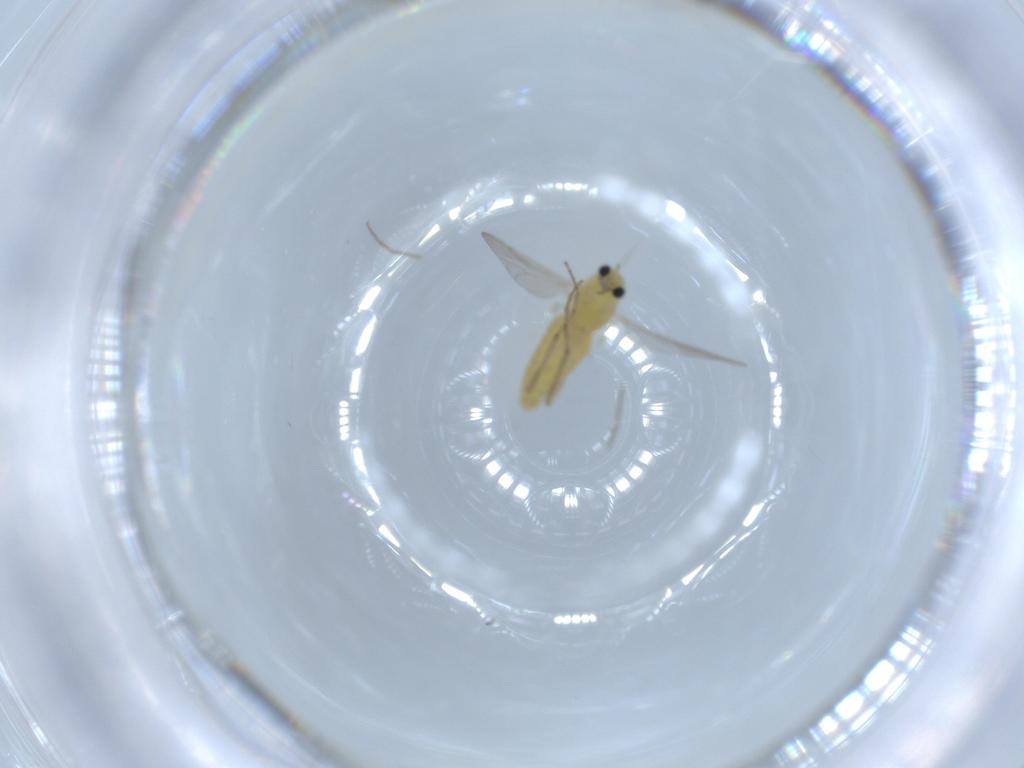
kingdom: Animalia
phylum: Arthropoda
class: Insecta
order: Diptera
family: Chironomidae
